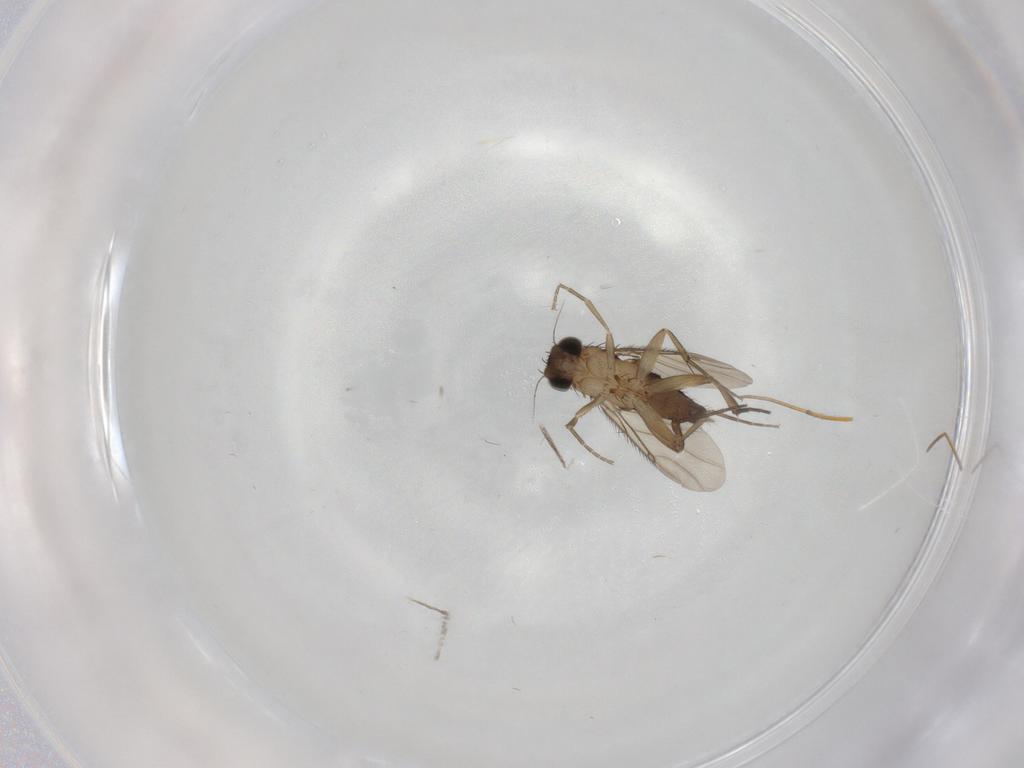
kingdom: Animalia
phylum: Arthropoda
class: Insecta
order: Diptera
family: Phoridae
